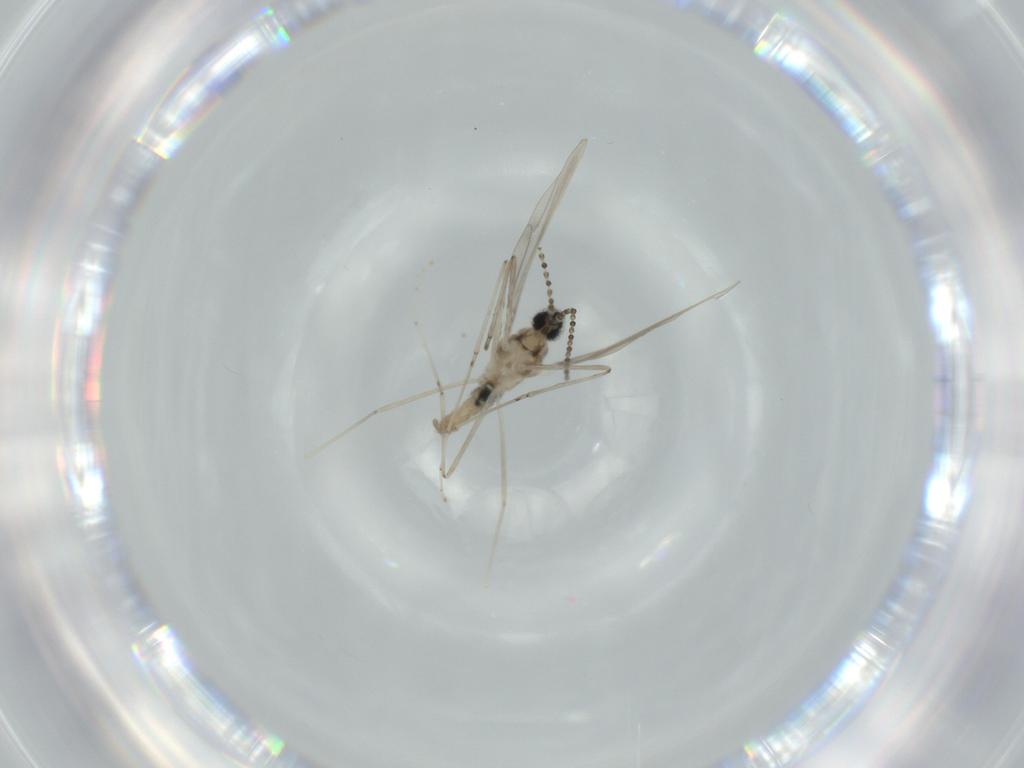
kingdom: Animalia
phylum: Arthropoda
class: Insecta
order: Diptera
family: Cecidomyiidae
